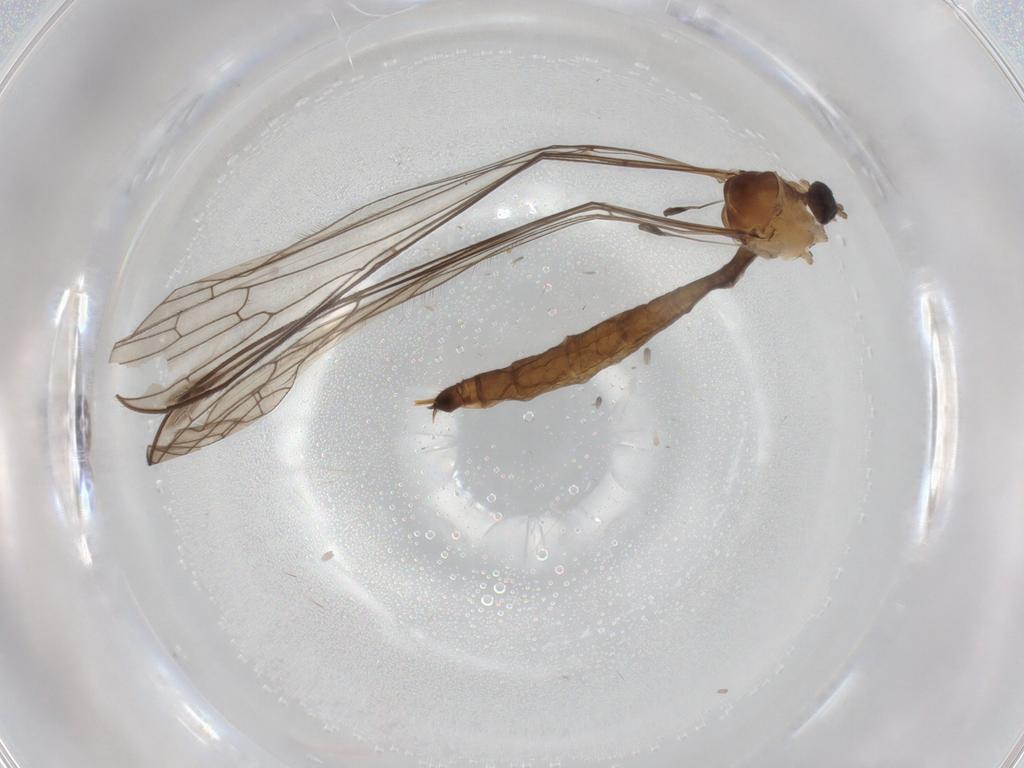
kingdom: Animalia
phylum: Arthropoda
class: Insecta
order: Diptera
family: Limoniidae
